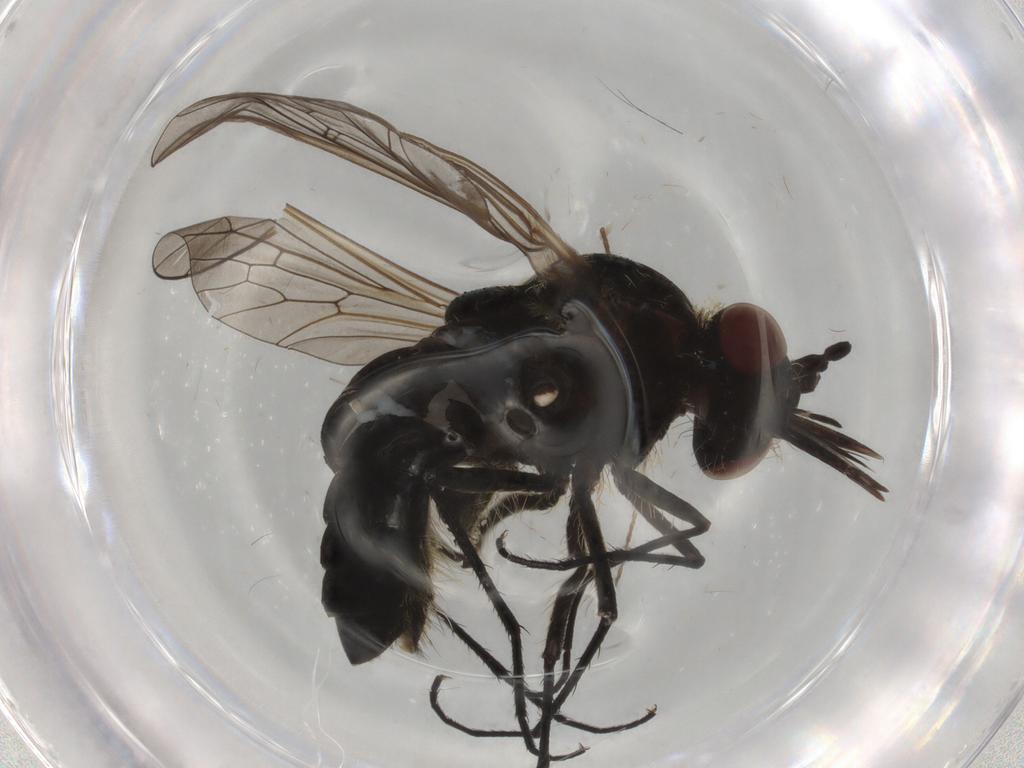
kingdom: Animalia
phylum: Arthropoda
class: Insecta
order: Diptera
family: Bombyliidae
